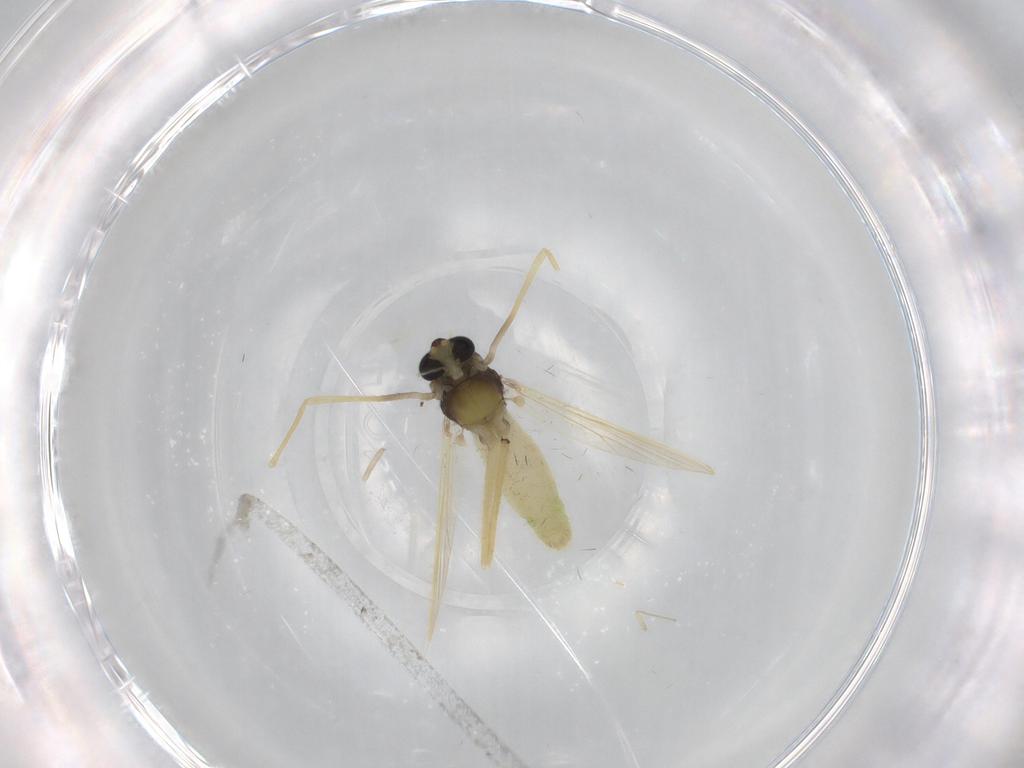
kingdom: Animalia
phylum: Arthropoda
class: Insecta
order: Diptera
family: Chironomidae
